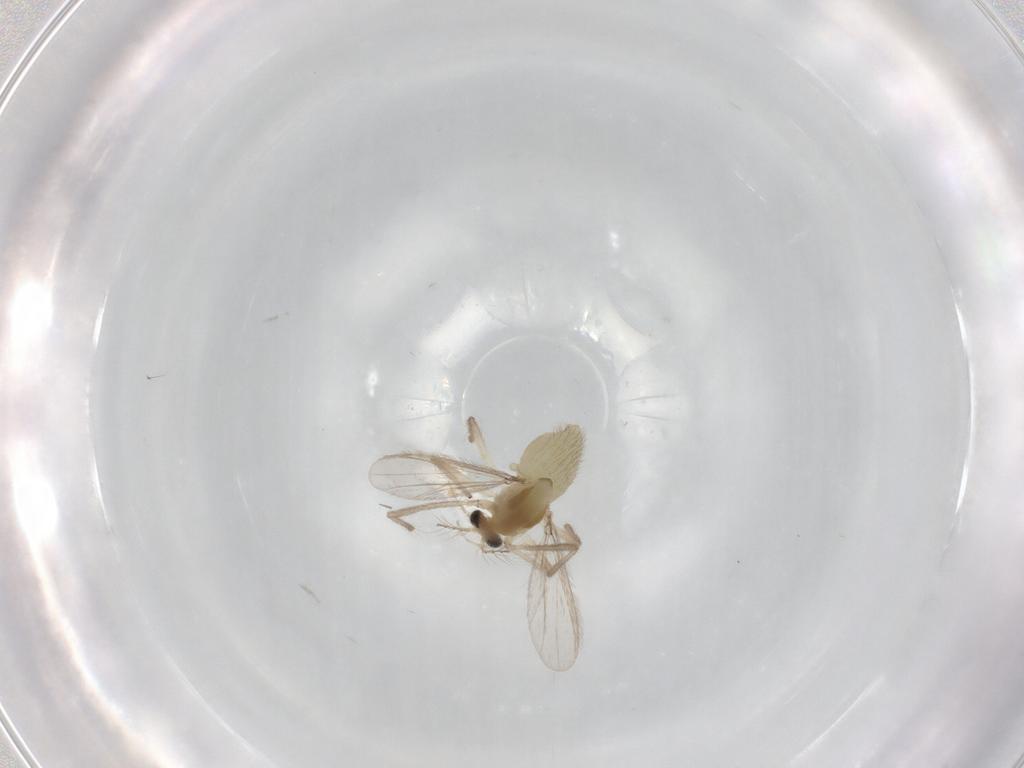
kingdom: Animalia
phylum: Arthropoda
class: Insecta
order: Diptera
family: Chironomidae
